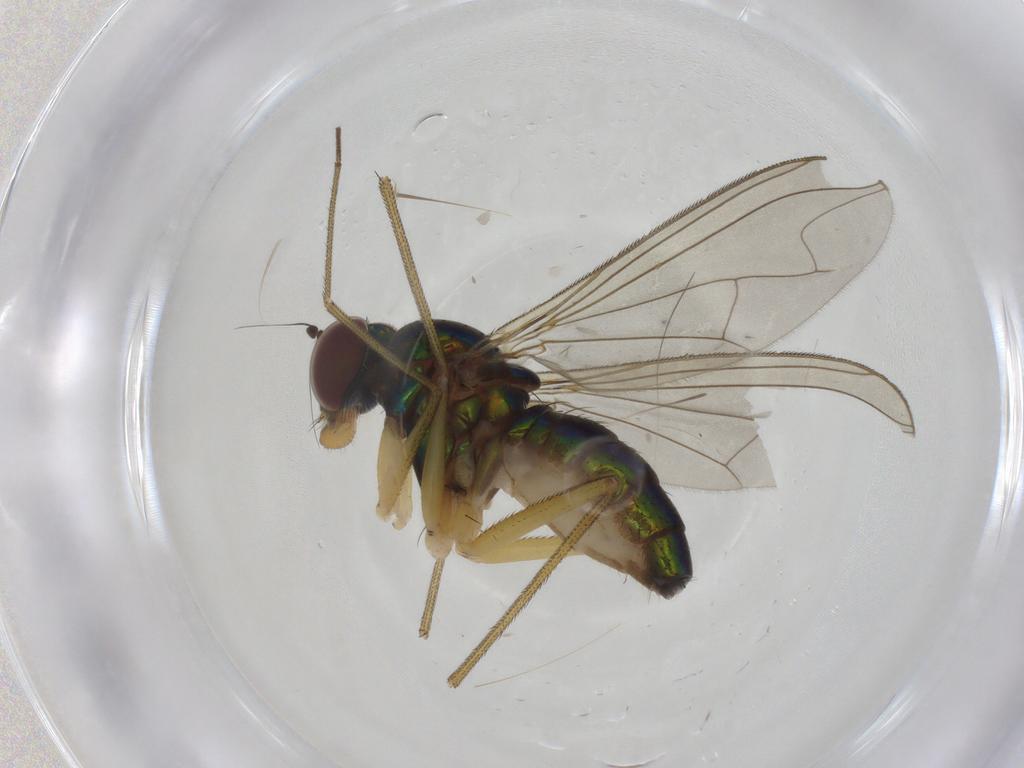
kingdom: Animalia
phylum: Arthropoda
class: Insecta
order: Diptera
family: Dolichopodidae
